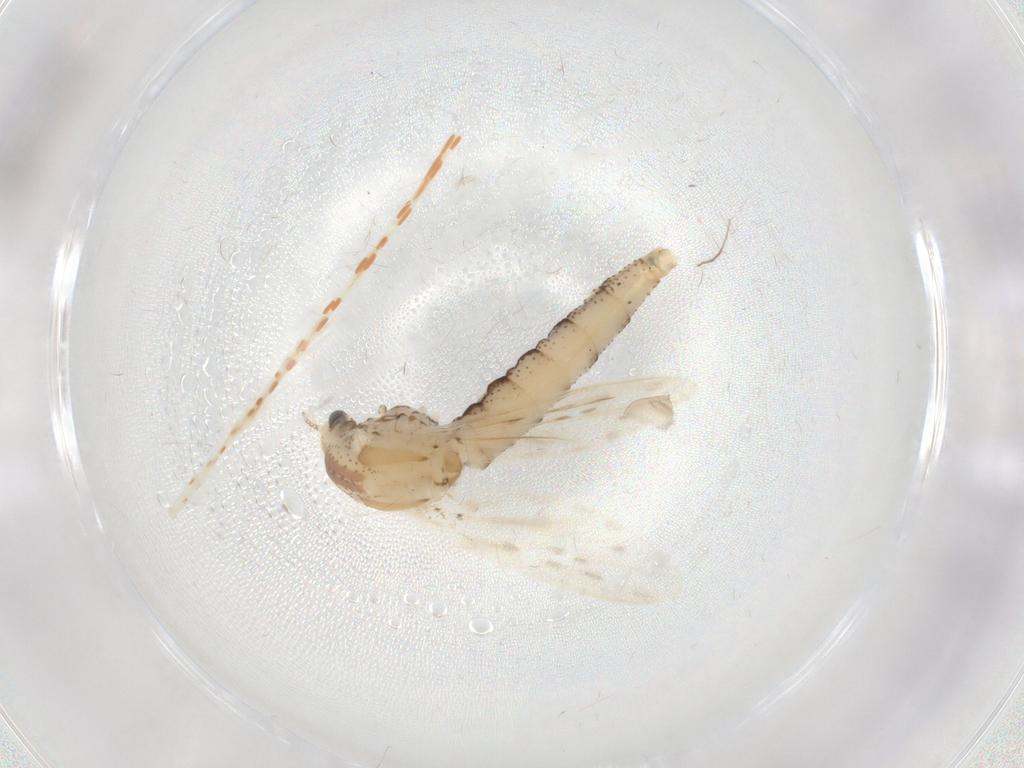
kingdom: Animalia
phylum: Arthropoda
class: Insecta
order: Diptera
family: Chaoboridae
